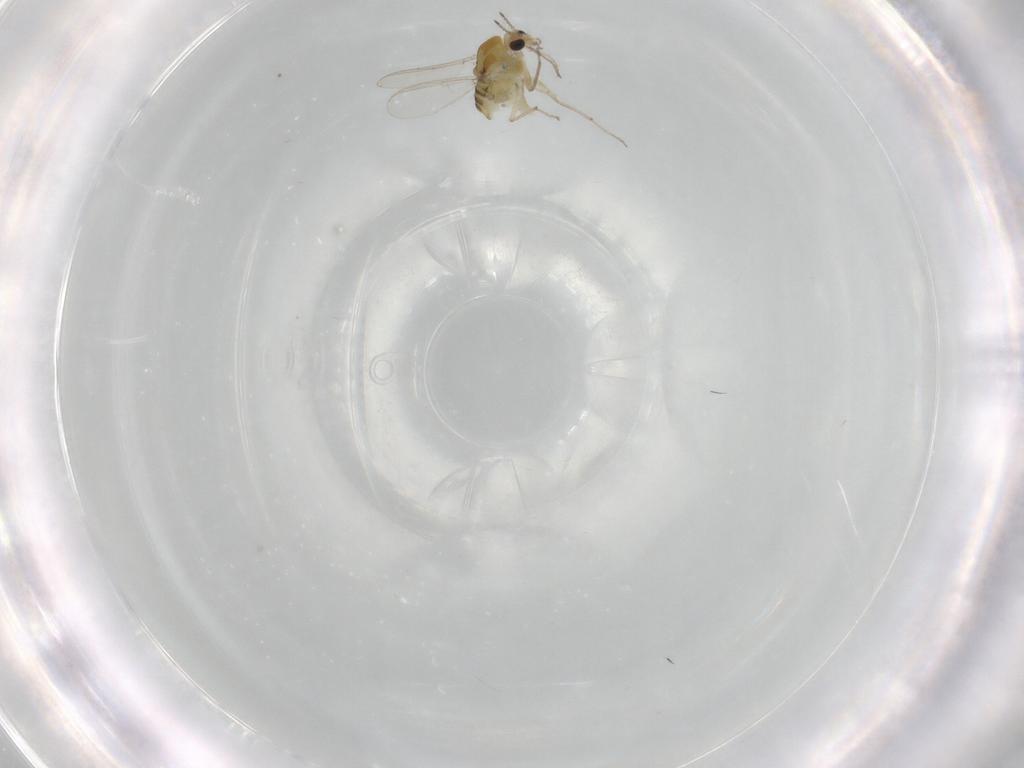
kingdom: Animalia
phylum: Arthropoda
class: Insecta
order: Diptera
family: Chironomidae
